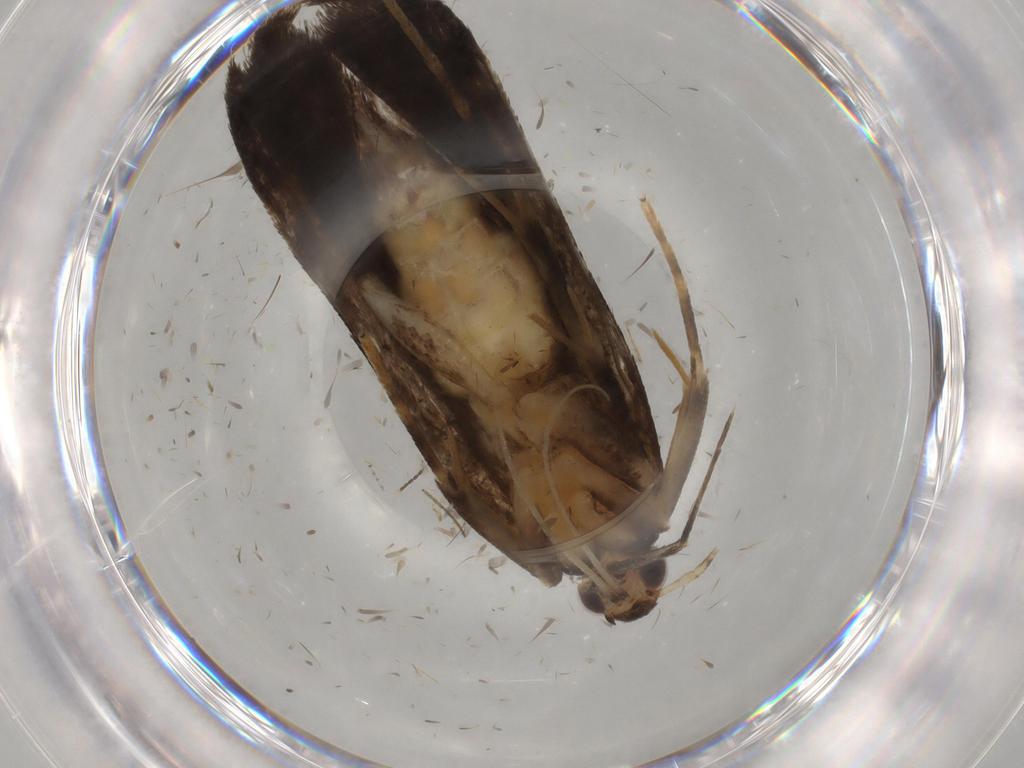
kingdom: Animalia
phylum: Arthropoda
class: Insecta
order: Lepidoptera
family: Gelechiidae
